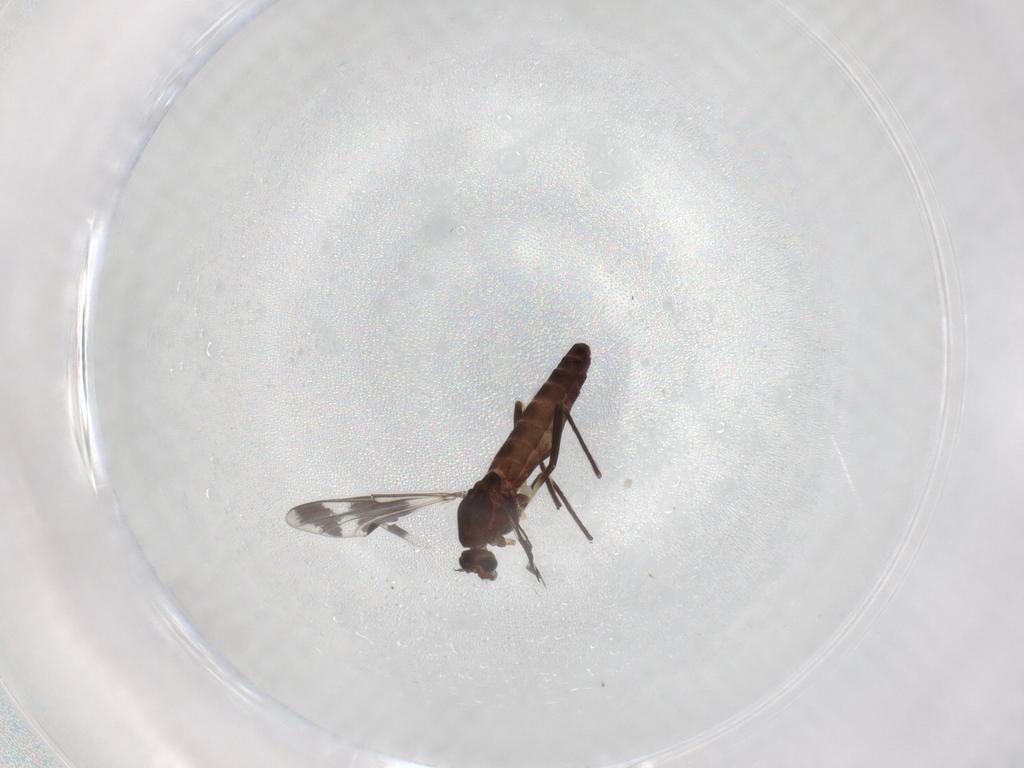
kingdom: Animalia
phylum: Arthropoda
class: Insecta
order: Diptera
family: Chironomidae
